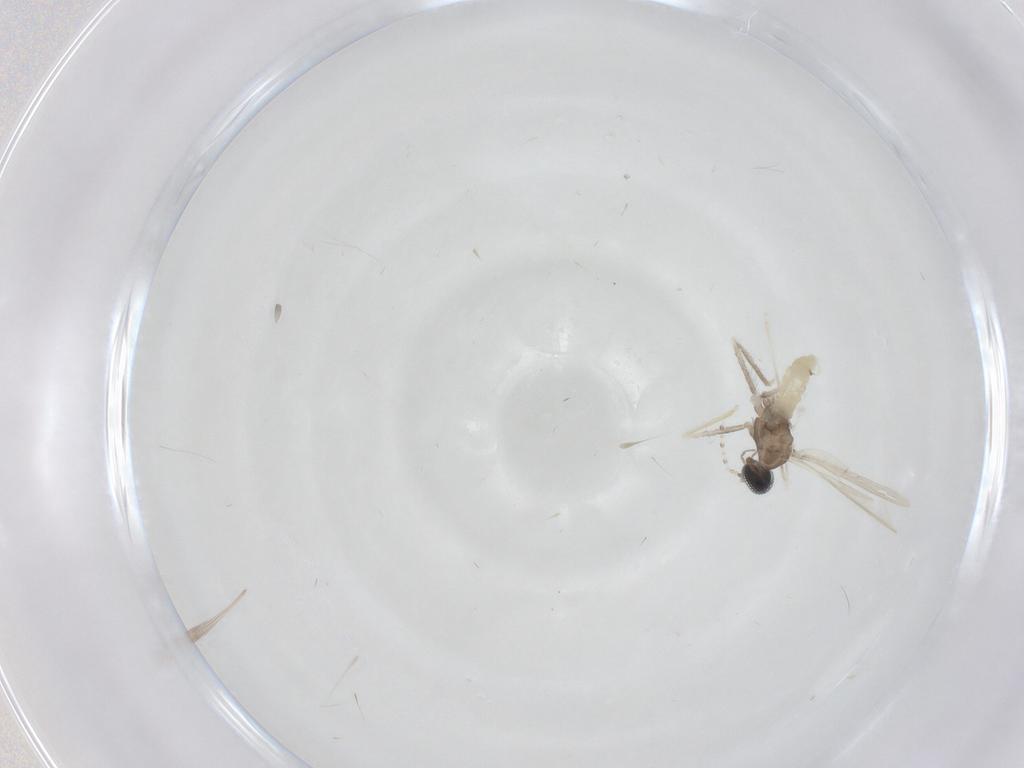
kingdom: Animalia
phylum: Arthropoda
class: Insecta
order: Diptera
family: Cecidomyiidae
